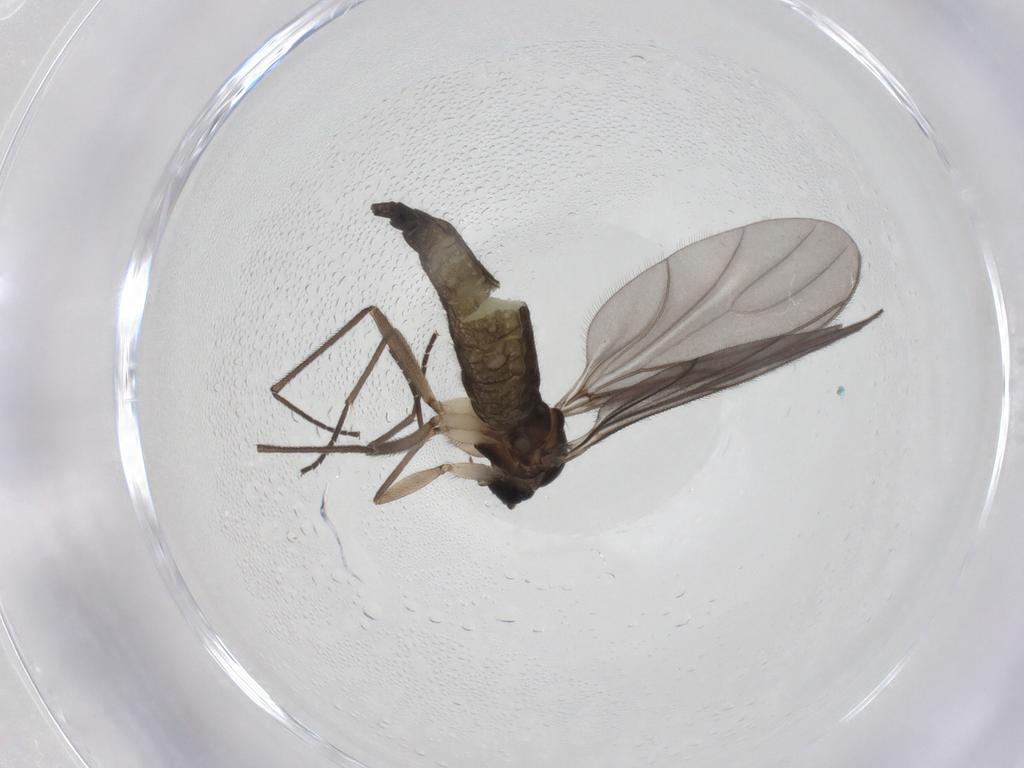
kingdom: Animalia
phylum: Arthropoda
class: Insecta
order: Diptera
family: Sciaridae
